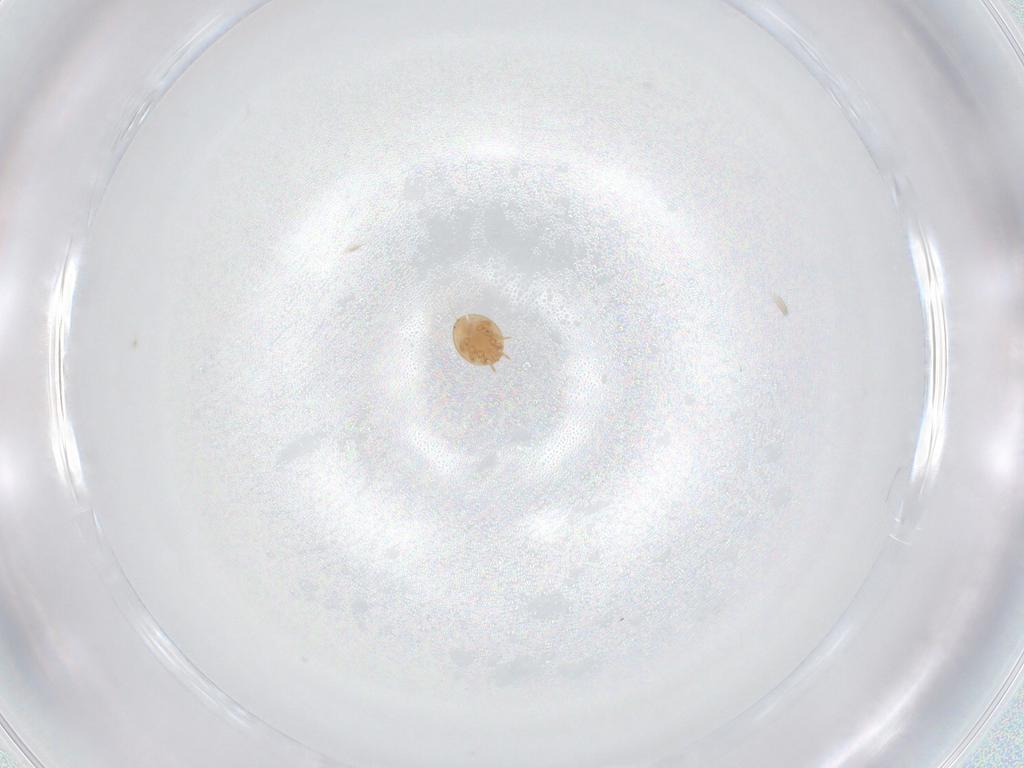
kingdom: Animalia
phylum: Arthropoda
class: Arachnida
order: Mesostigmata
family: Trematuridae
